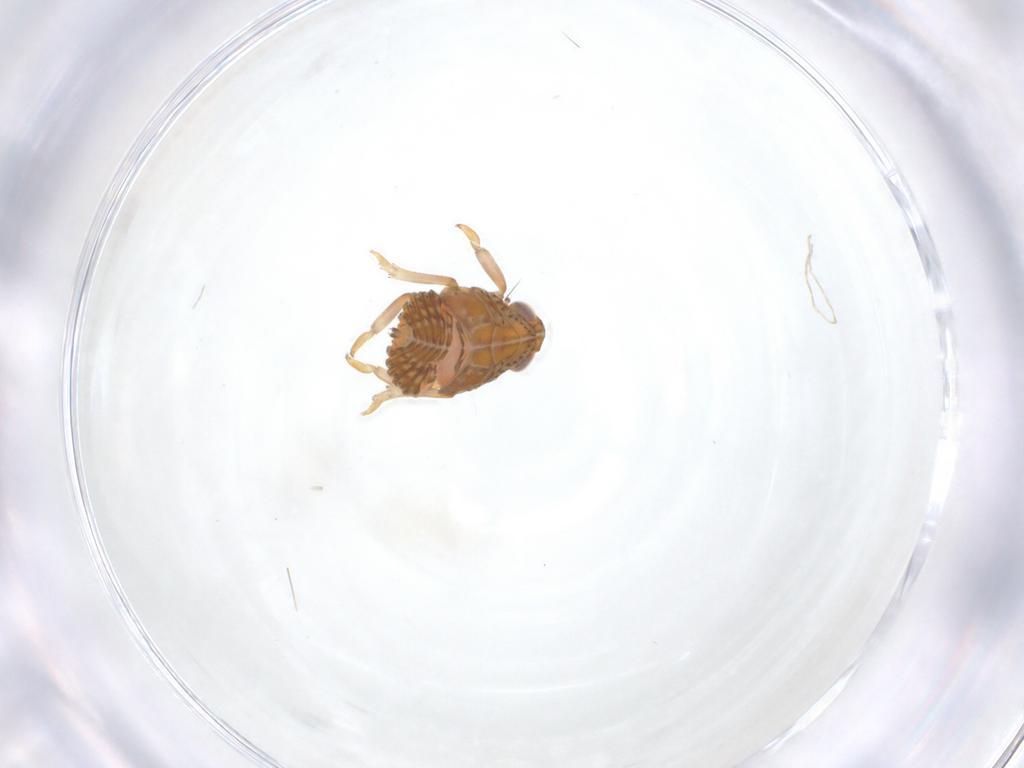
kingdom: Animalia
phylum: Arthropoda
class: Insecta
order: Hemiptera
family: Issidae
